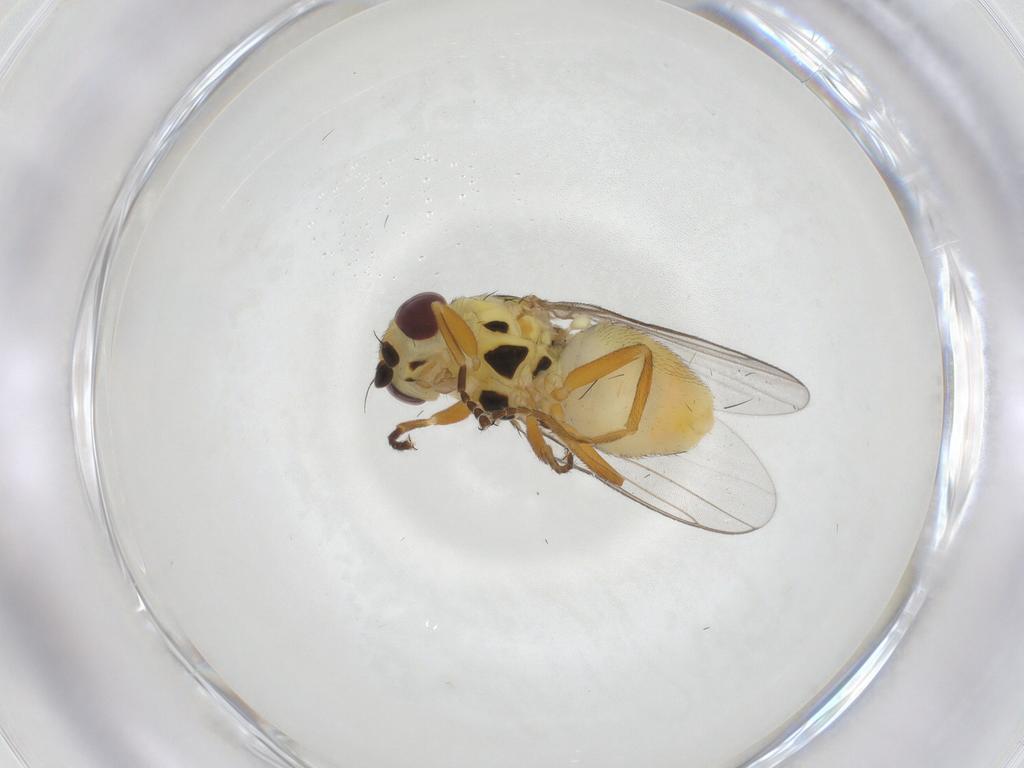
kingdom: Animalia
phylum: Arthropoda
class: Insecta
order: Diptera
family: Chloropidae
